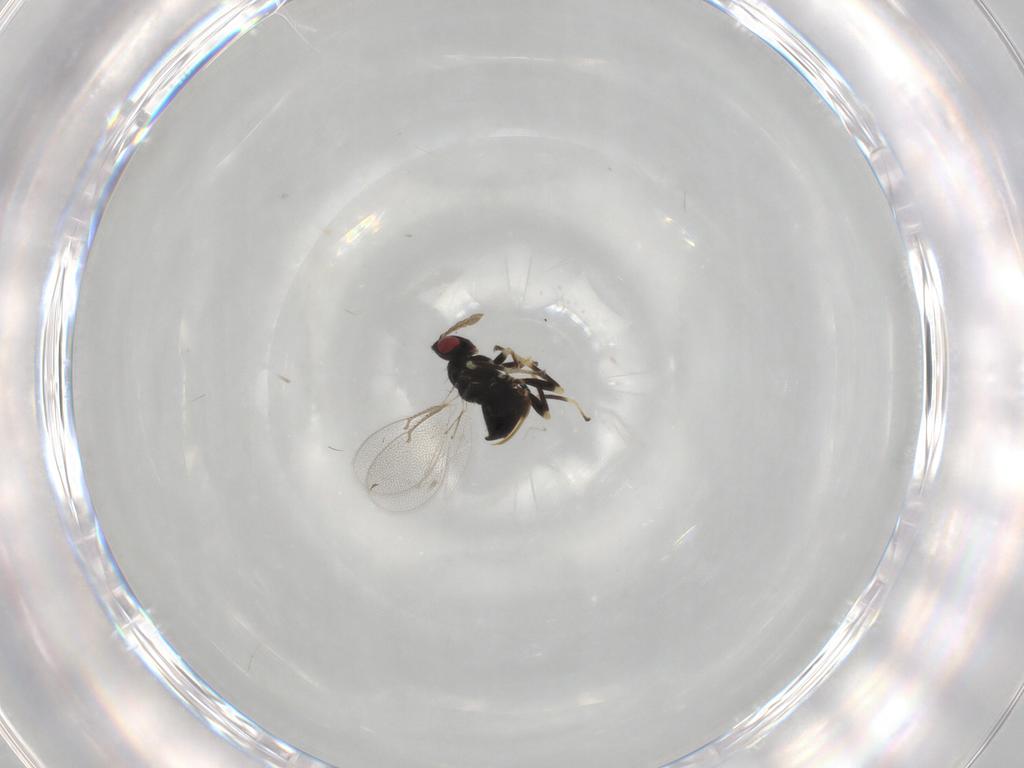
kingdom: Animalia
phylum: Arthropoda
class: Insecta
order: Hymenoptera
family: Eulophidae
